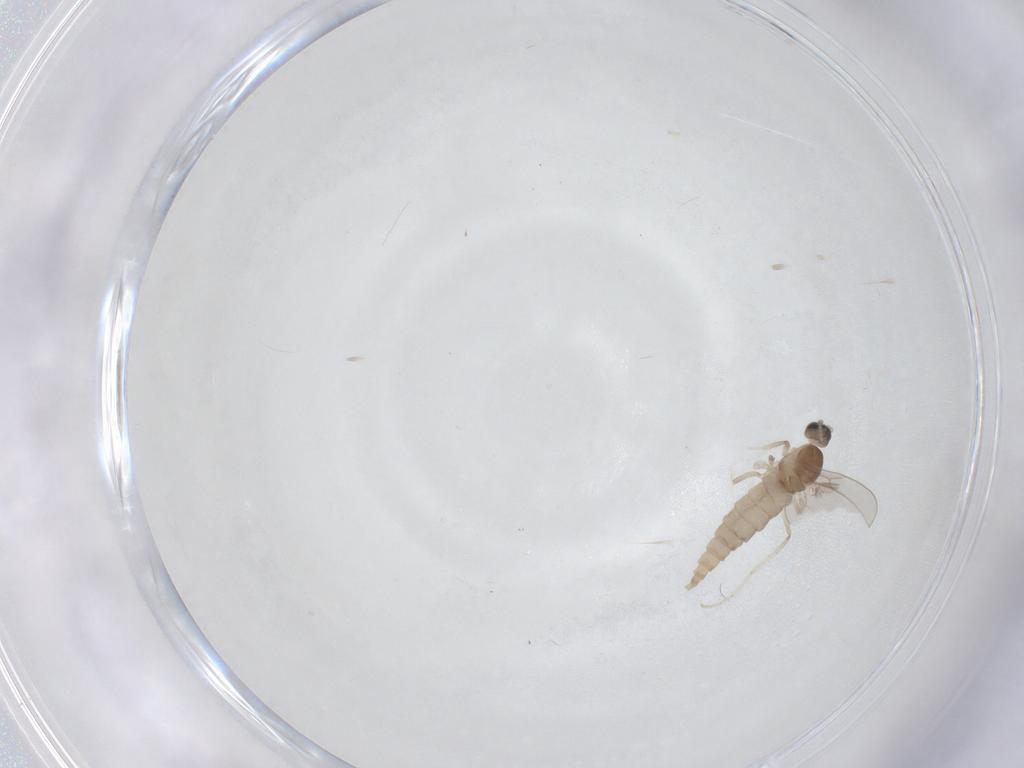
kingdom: Animalia
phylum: Arthropoda
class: Insecta
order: Diptera
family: Cecidomyiidae
